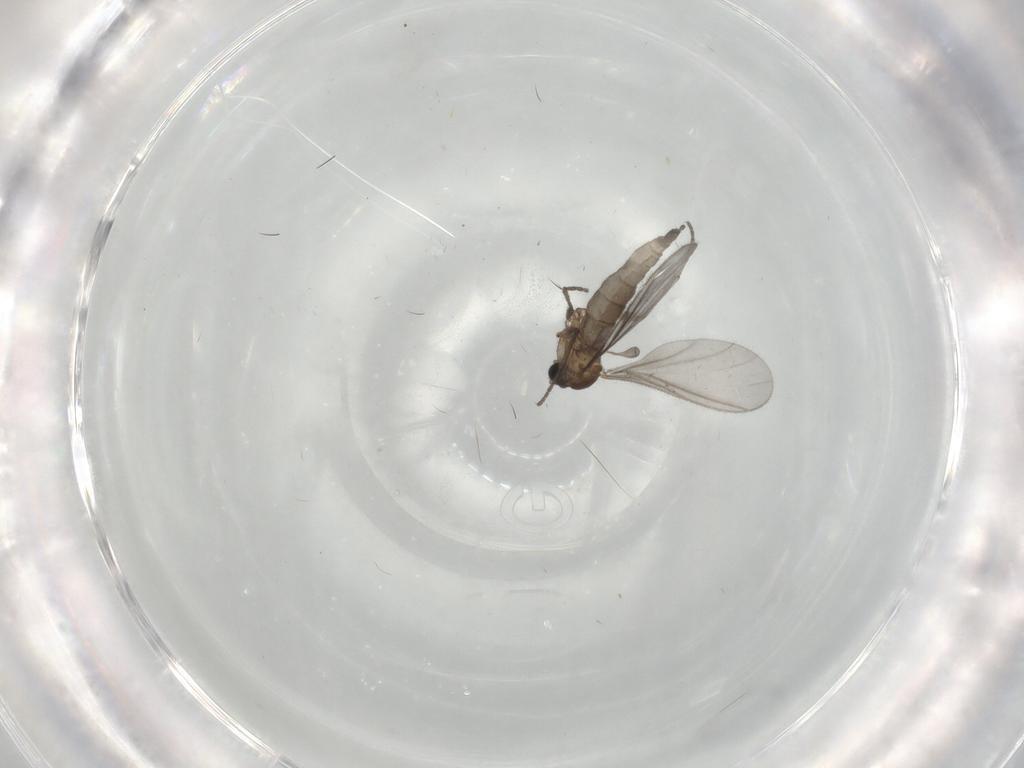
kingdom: Animalia
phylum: Arthropoda
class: Insecta
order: Diptera
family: Sciaridae
